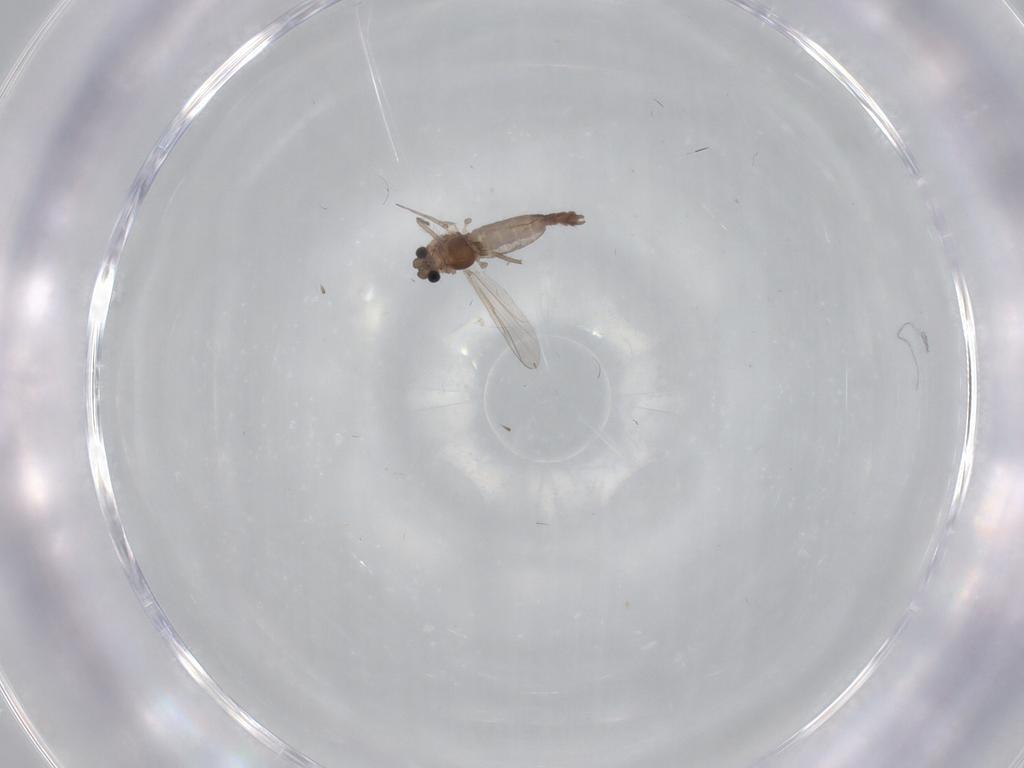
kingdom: Animalia
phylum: Arthropoda
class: Insecta
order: Diptera
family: Chironomidae
